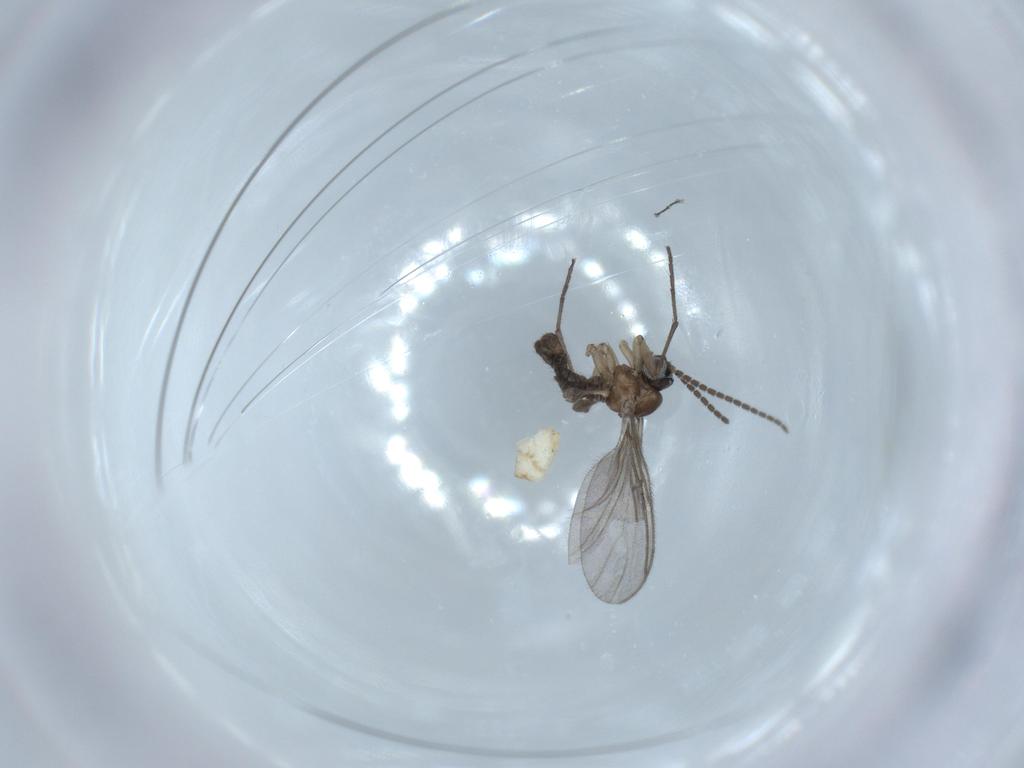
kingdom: Animalia
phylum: Arthropoda
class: Insecta
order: Diptera
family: Sciaridae
